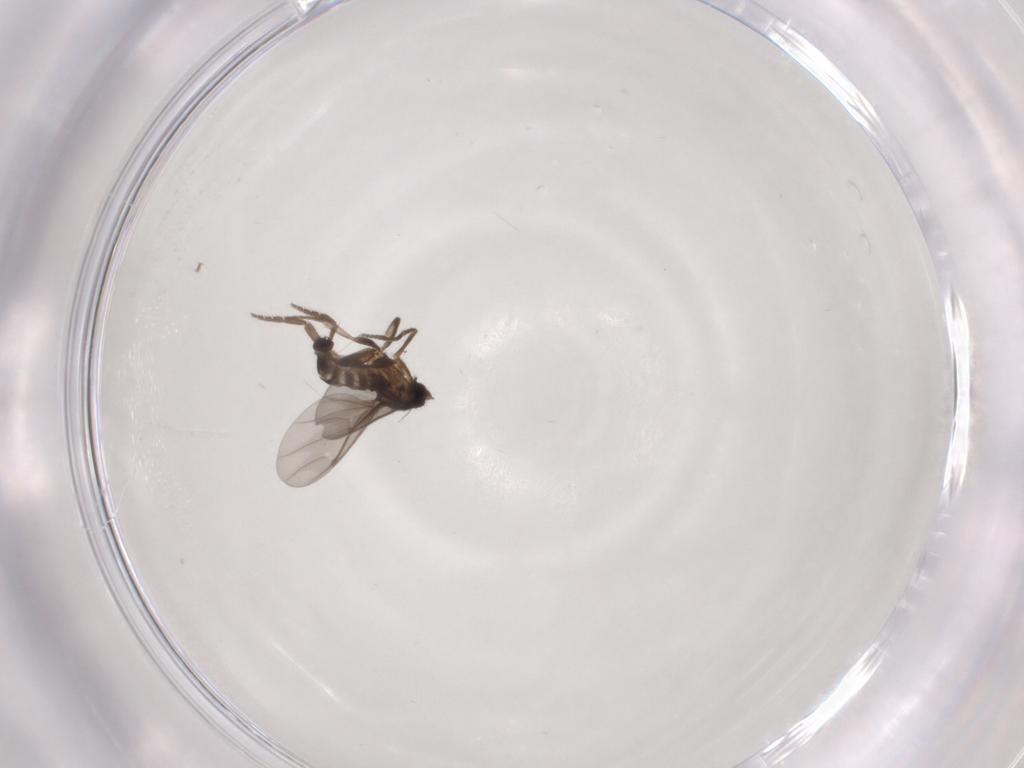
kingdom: Animalia
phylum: Arthropoda
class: Insecta
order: Diptera
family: Phoridae
